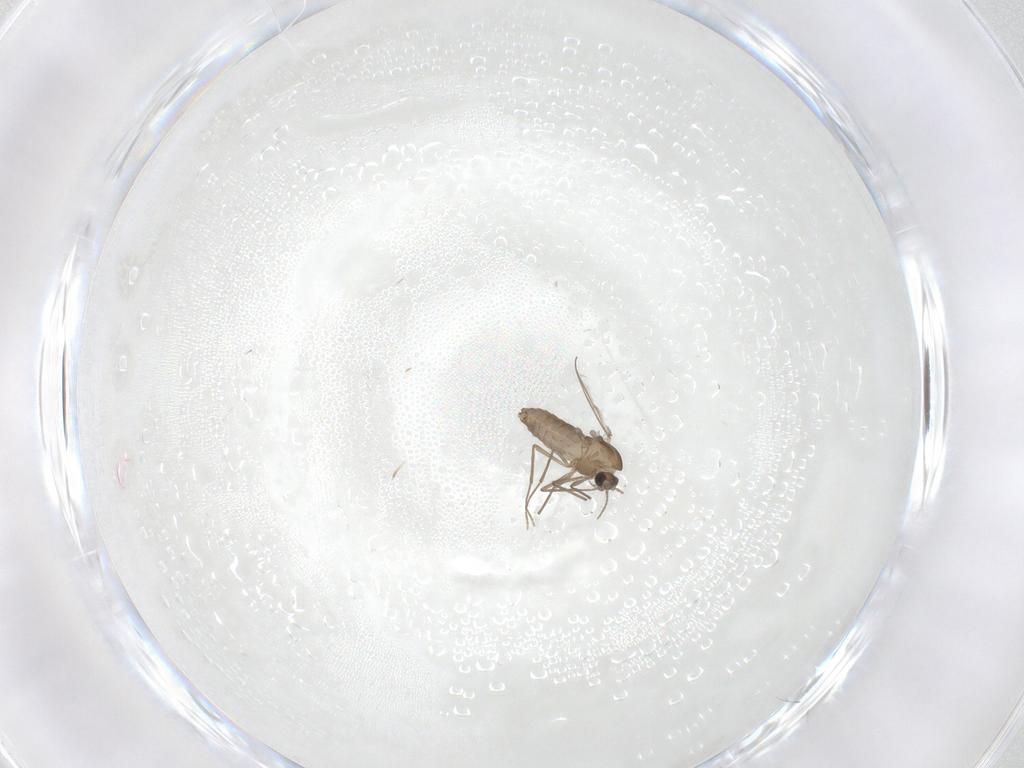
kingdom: Animalia
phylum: Arthropoda
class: Insecta
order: Diptera
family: Chironomidae
